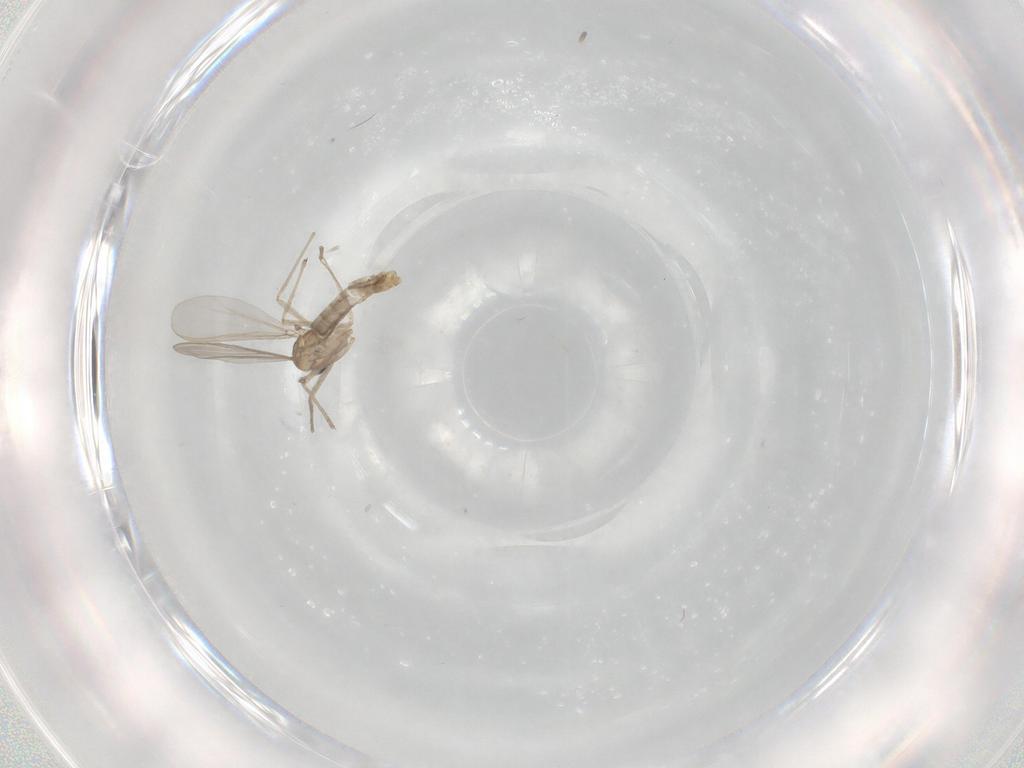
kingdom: Animalia
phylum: Arthropoda
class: Insecta
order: Diptera
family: Chironomidae
